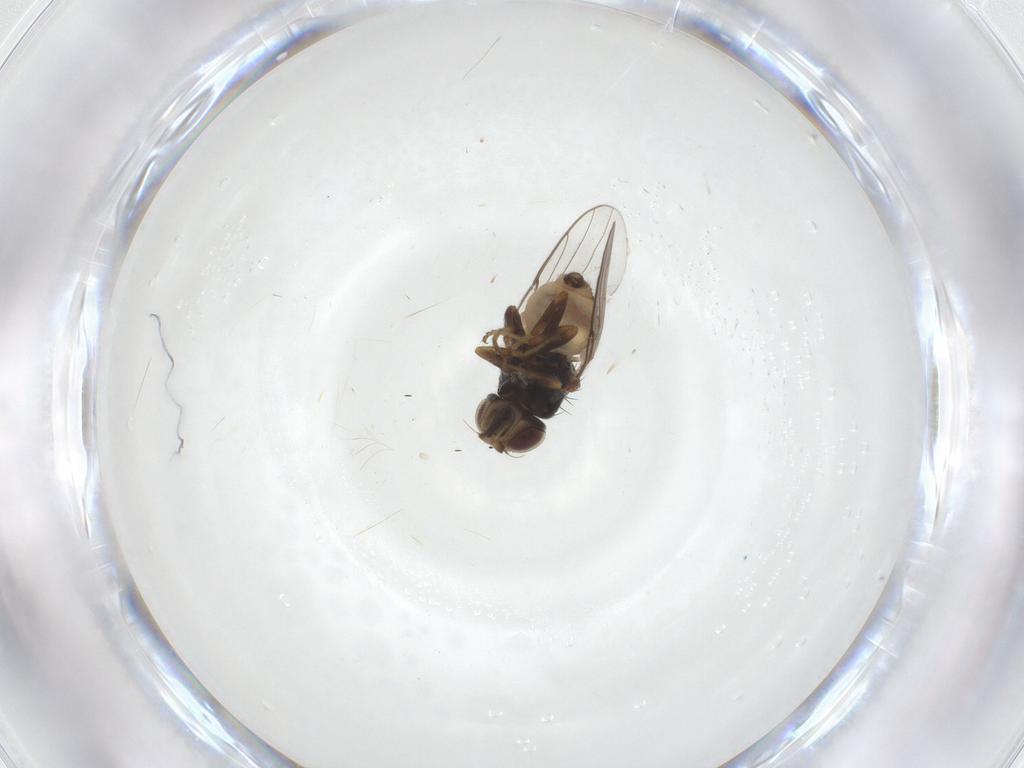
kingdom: Animalia
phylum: Arthropoda
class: Insecta
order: Diptera
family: Chloropidae
